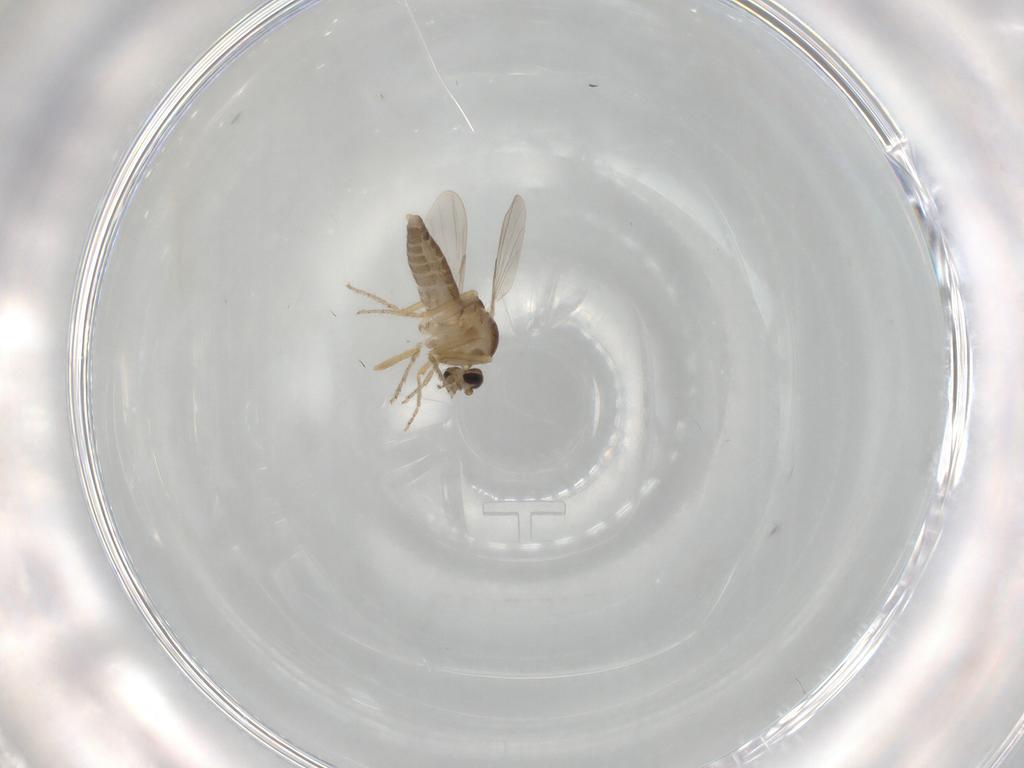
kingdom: Animalia
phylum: Arthropoda
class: Insecta
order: Diptera
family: Ceratopogonidae
